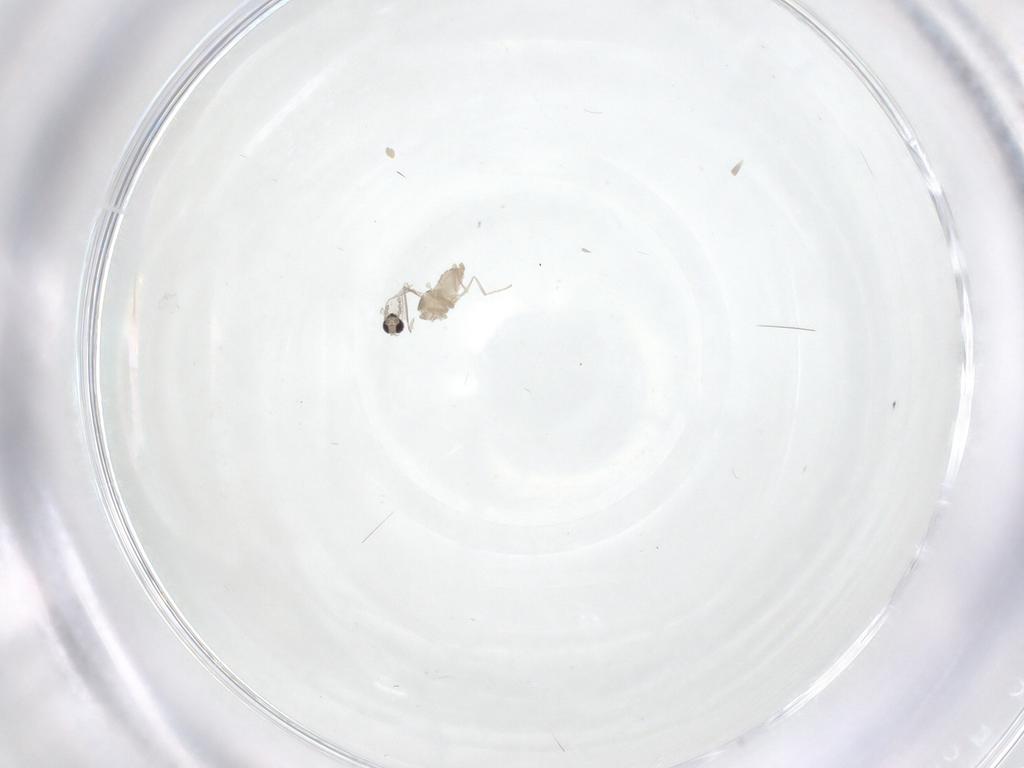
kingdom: Animalia
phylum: Arthropoda
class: Insecta
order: Diptera
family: Cecidomyiidae
